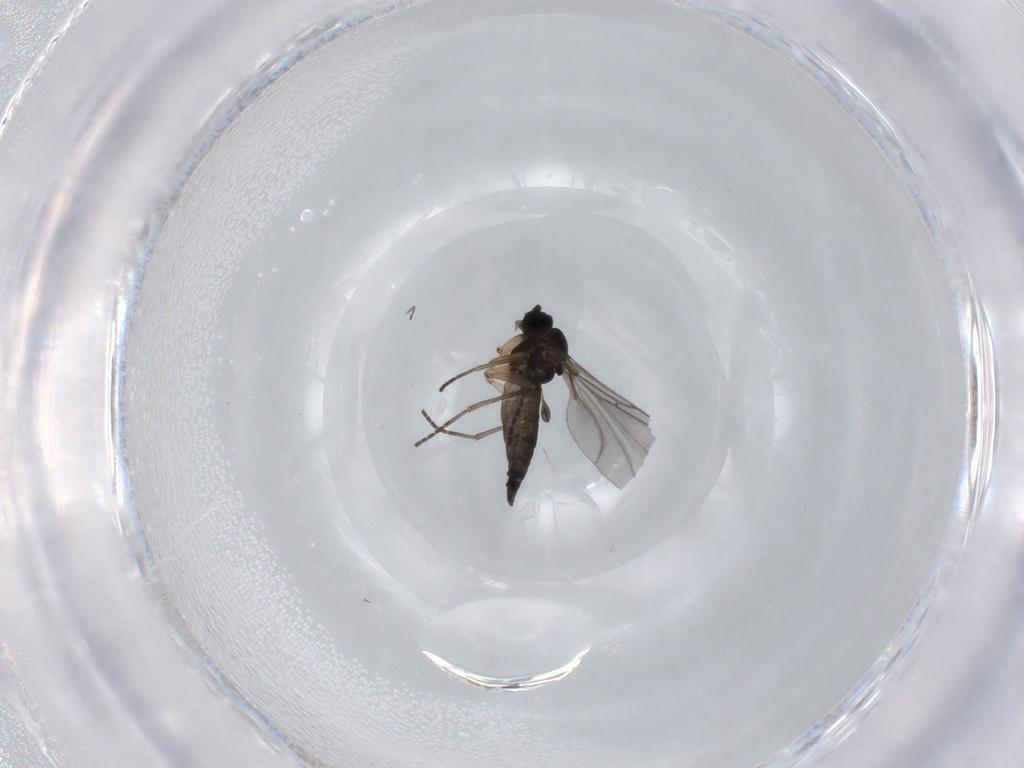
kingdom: Animalia
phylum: Arthropoda
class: Insecta
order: Diptera
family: Sciaridae
